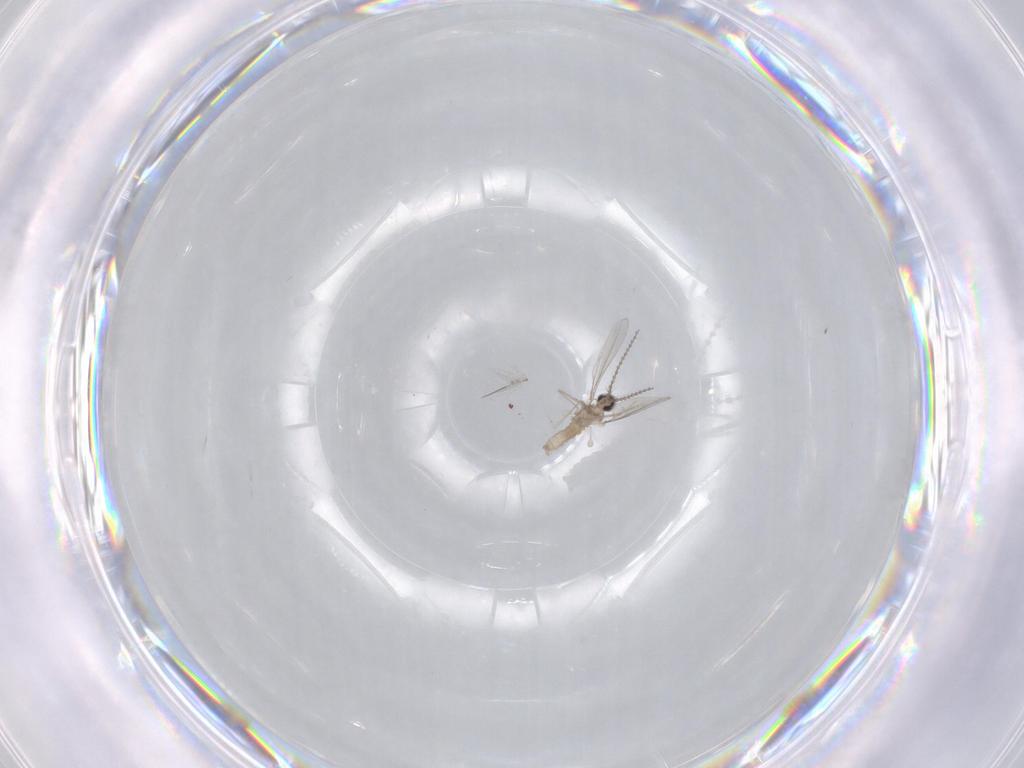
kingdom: Animalia
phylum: Arthropoda
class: Insecta
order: Diptera
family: Chironomidae
